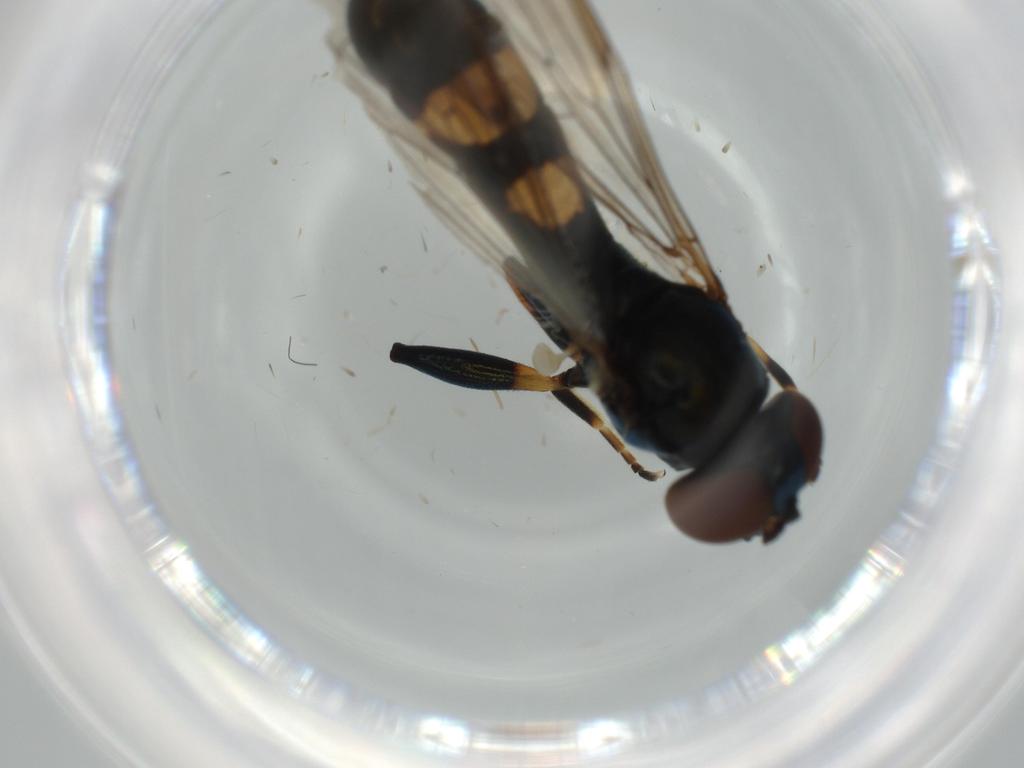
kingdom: Animalia
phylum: Arthropoda
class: Insecta
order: Diptera
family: Chironomidae
